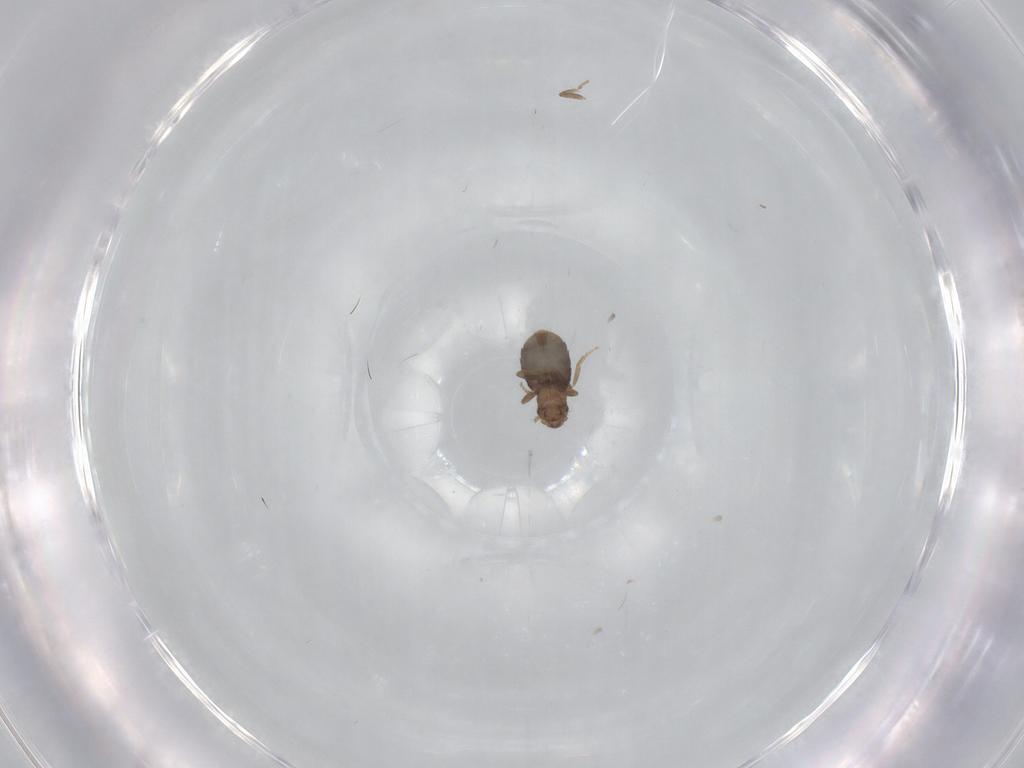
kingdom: Animalia
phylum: Arthropoda
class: Insecta
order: Diptera
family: Chironomidae
